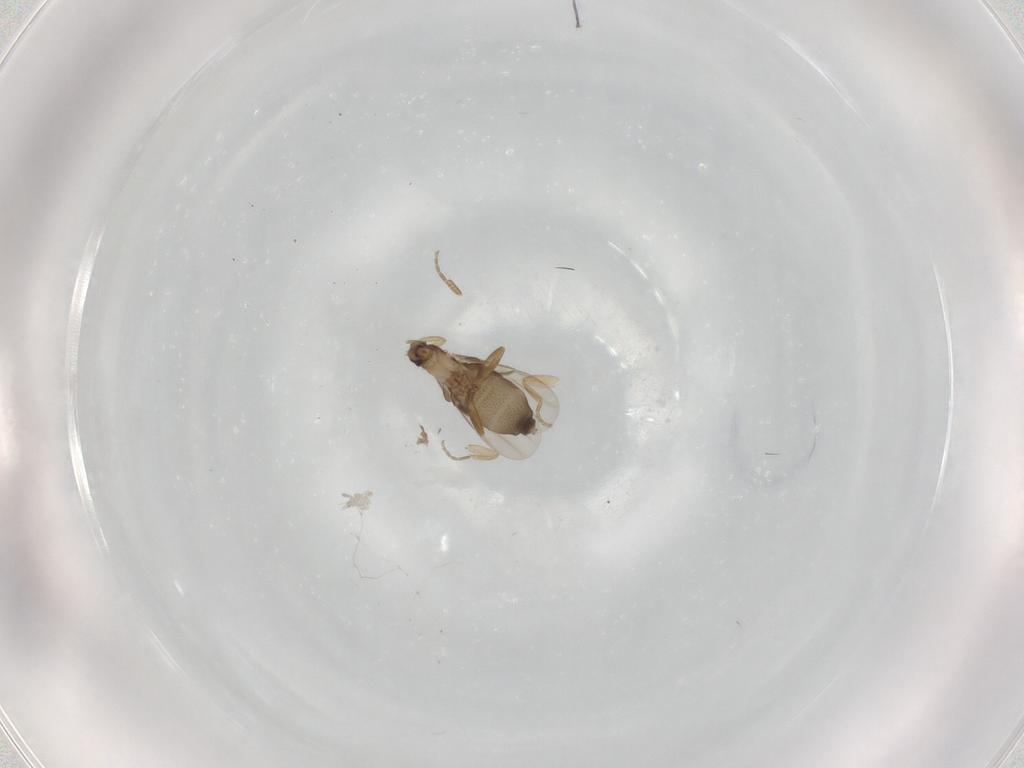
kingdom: Animalia
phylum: Arthropoda
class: Insecta
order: Diptera
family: Phoridae
